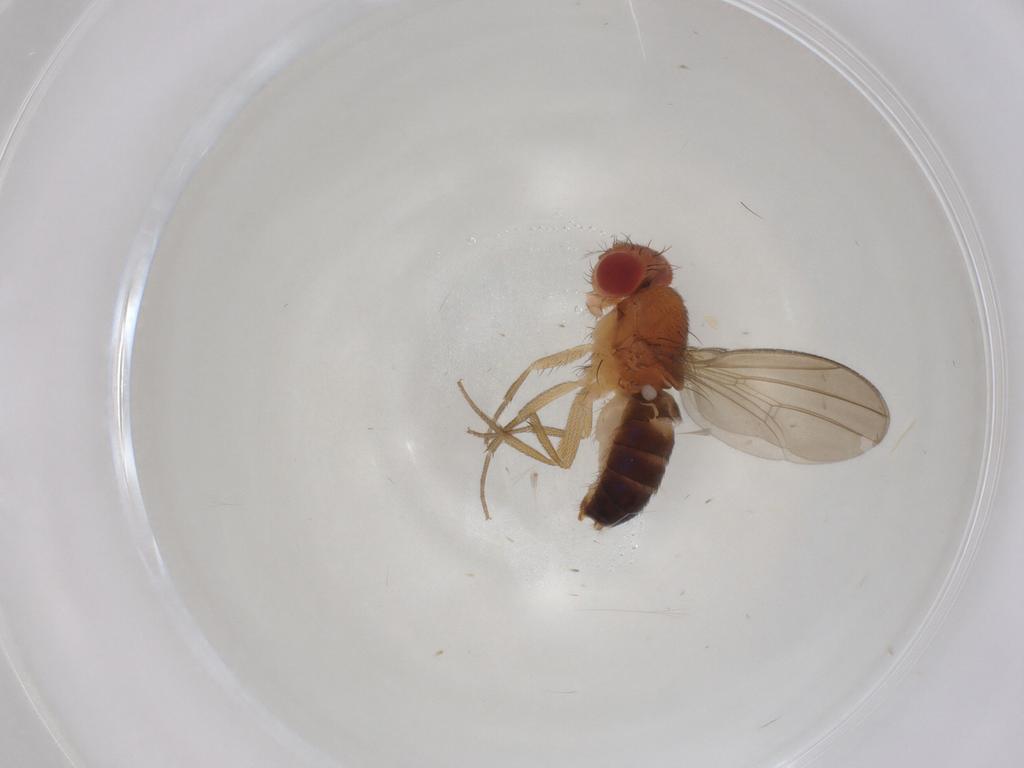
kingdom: Animalia
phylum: Arthropoda
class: Insecta
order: Diptera
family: Drosophilidae
